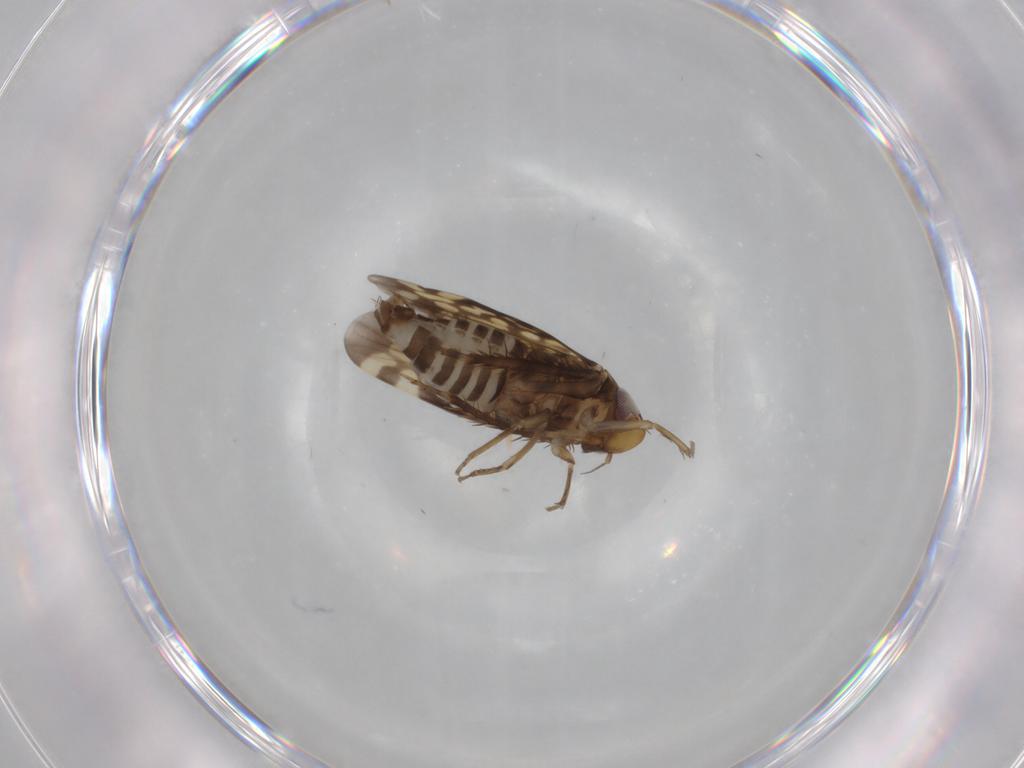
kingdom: Animalia
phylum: Arthropoda
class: Insecta
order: Hemiptera
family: Cicadellidae
